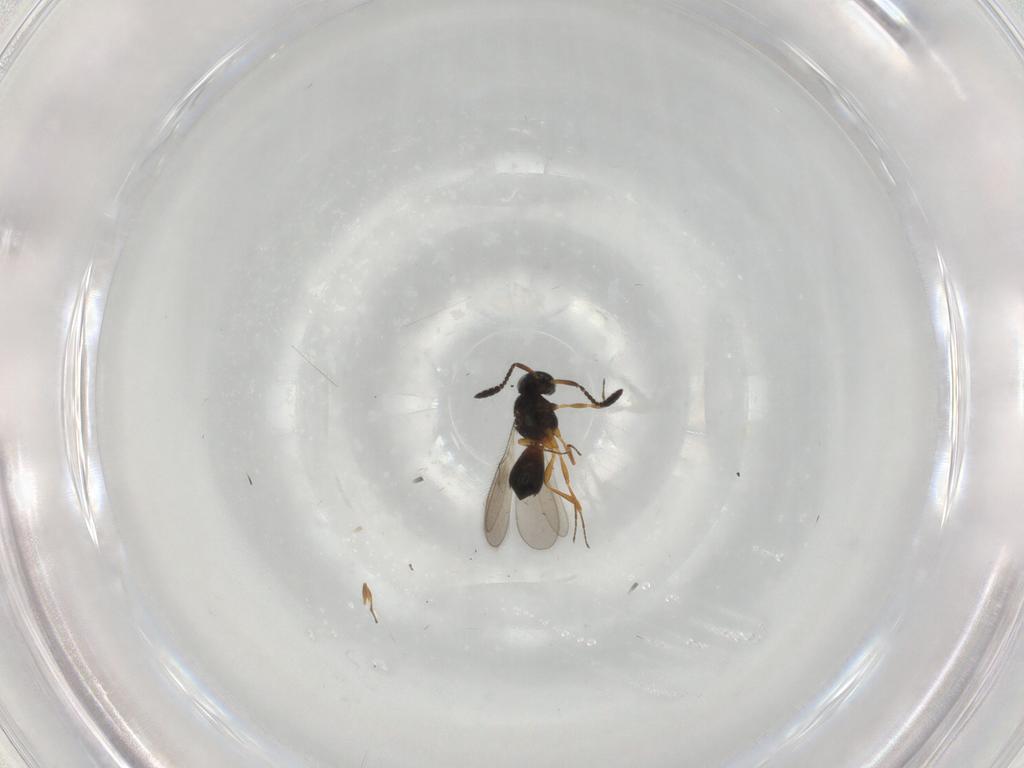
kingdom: Animalia
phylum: Arthropoda
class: Insecta
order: Hymenoptera
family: Scelionidae
